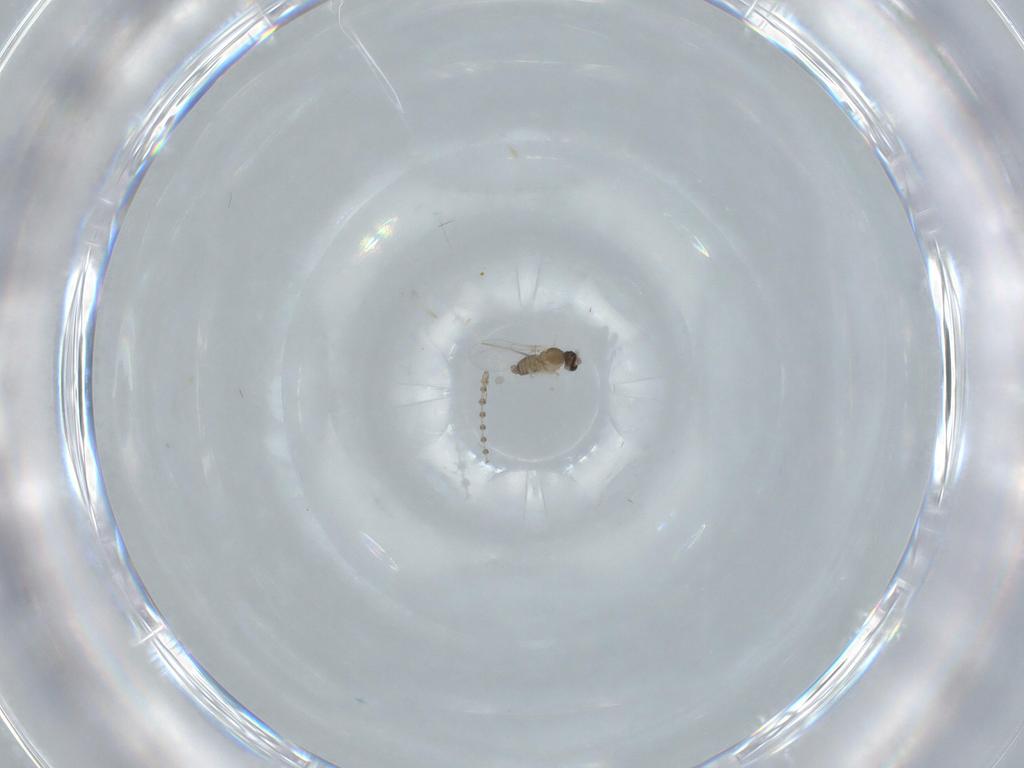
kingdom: Animalia
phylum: Arthropoda
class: Insecta
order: Diptera
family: Cecidomyiidae
